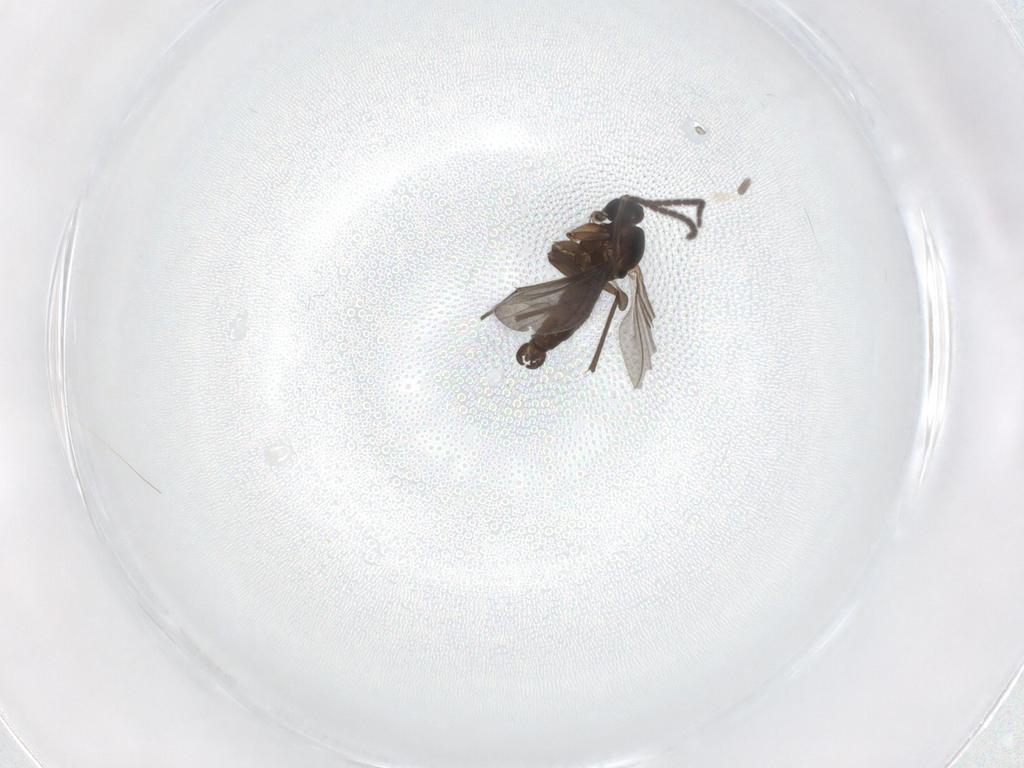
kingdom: Animalia
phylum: Arthropoda
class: Insecta
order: Diptera
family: Sciaridae
